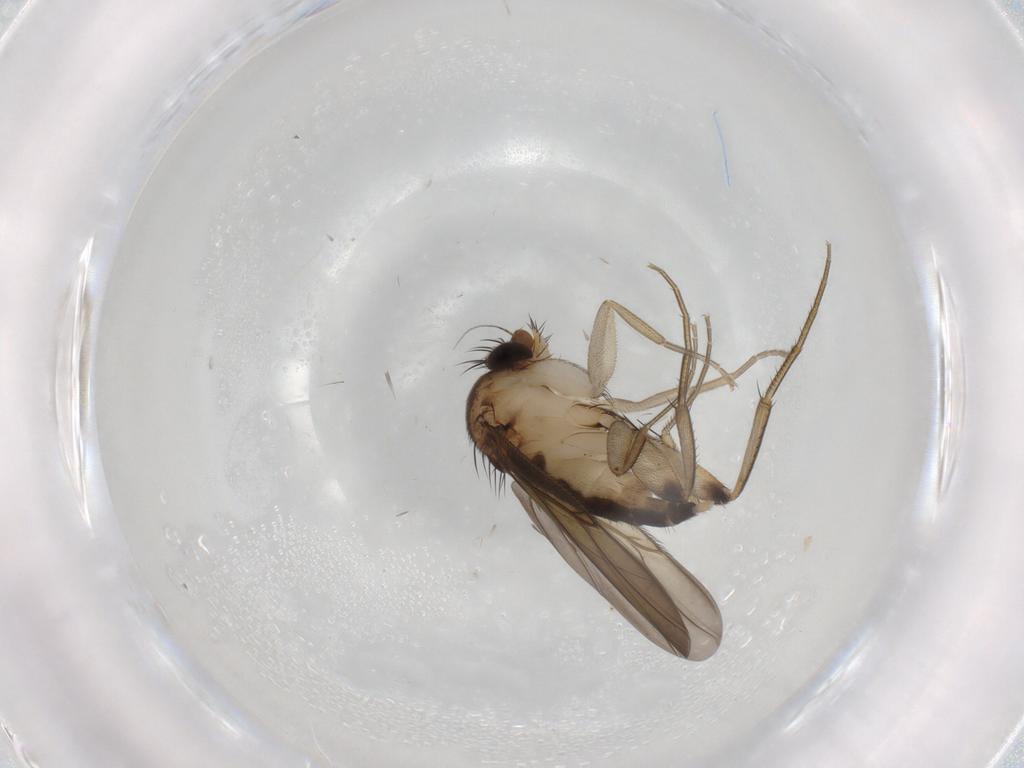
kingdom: Animalia
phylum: Arthropoda
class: Insecta
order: Diptera
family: Phoridae
